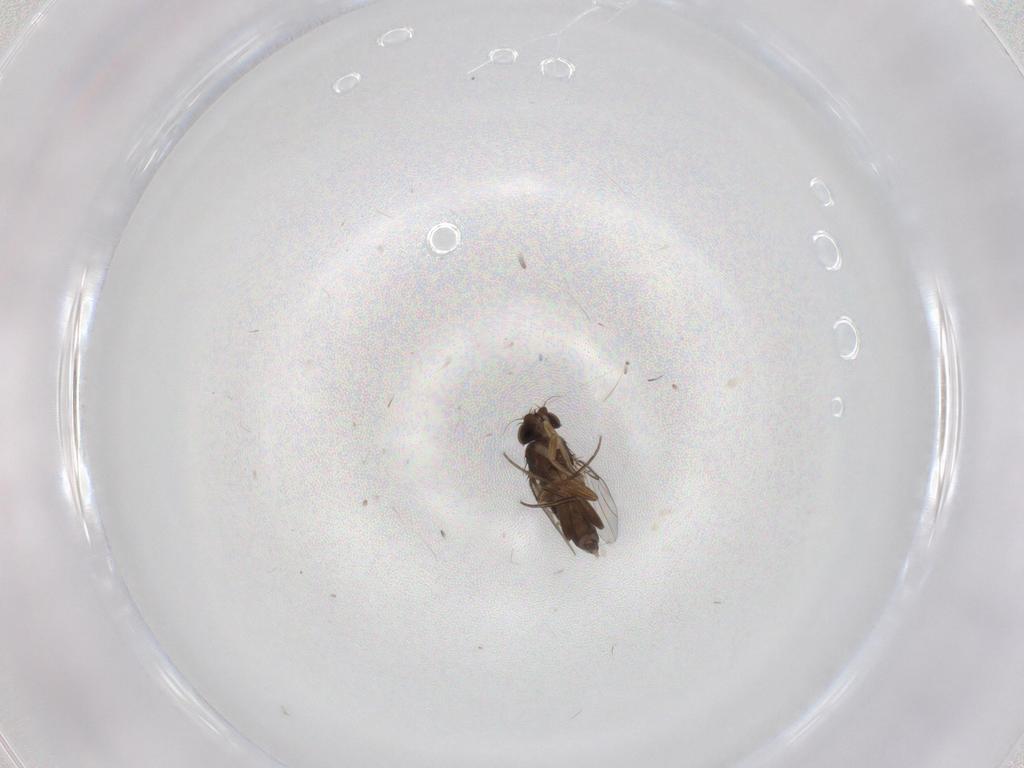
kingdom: Animalia
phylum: Arthropoda
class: Insecta
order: Diptera
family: Phoridae
